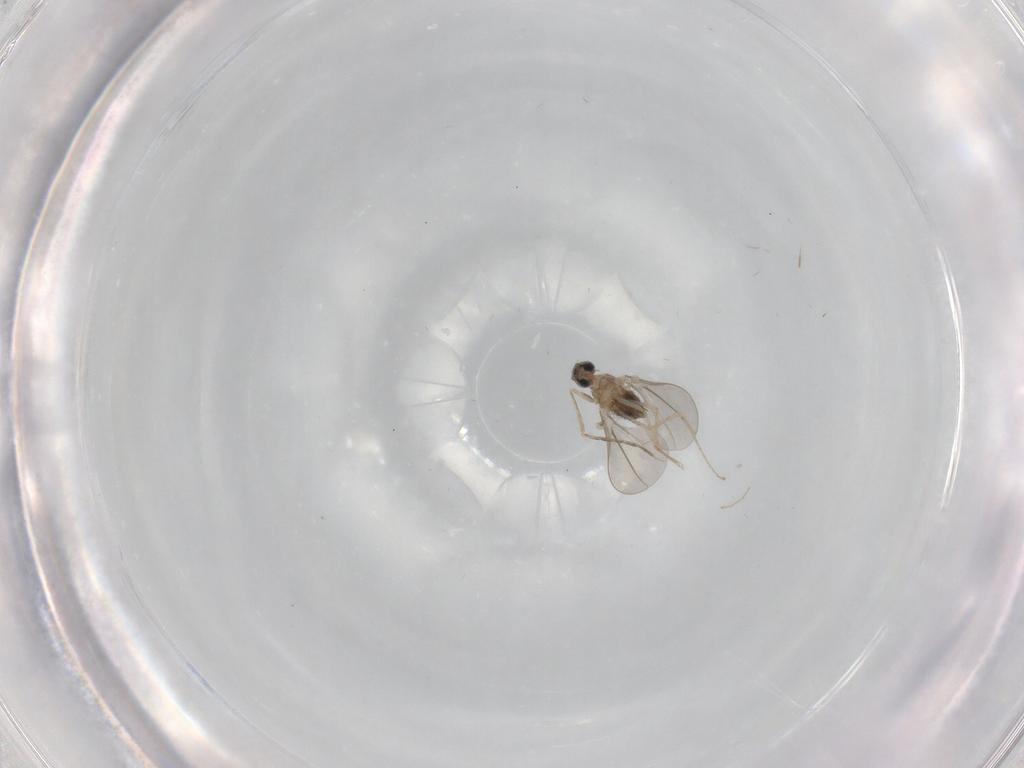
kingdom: Animalia
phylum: Arthropoda
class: Insecta
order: Diptera
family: Cecidomyiidae
